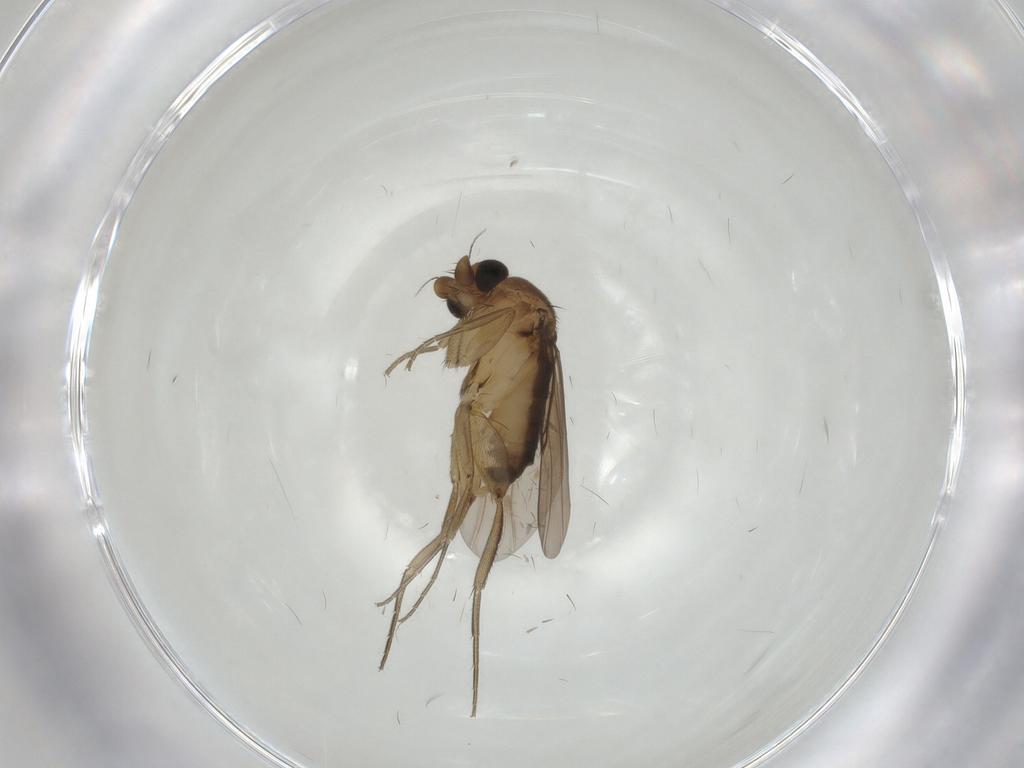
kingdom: Animalia
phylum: Arthropoda
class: Insecta
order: Diptera
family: Phoridae
